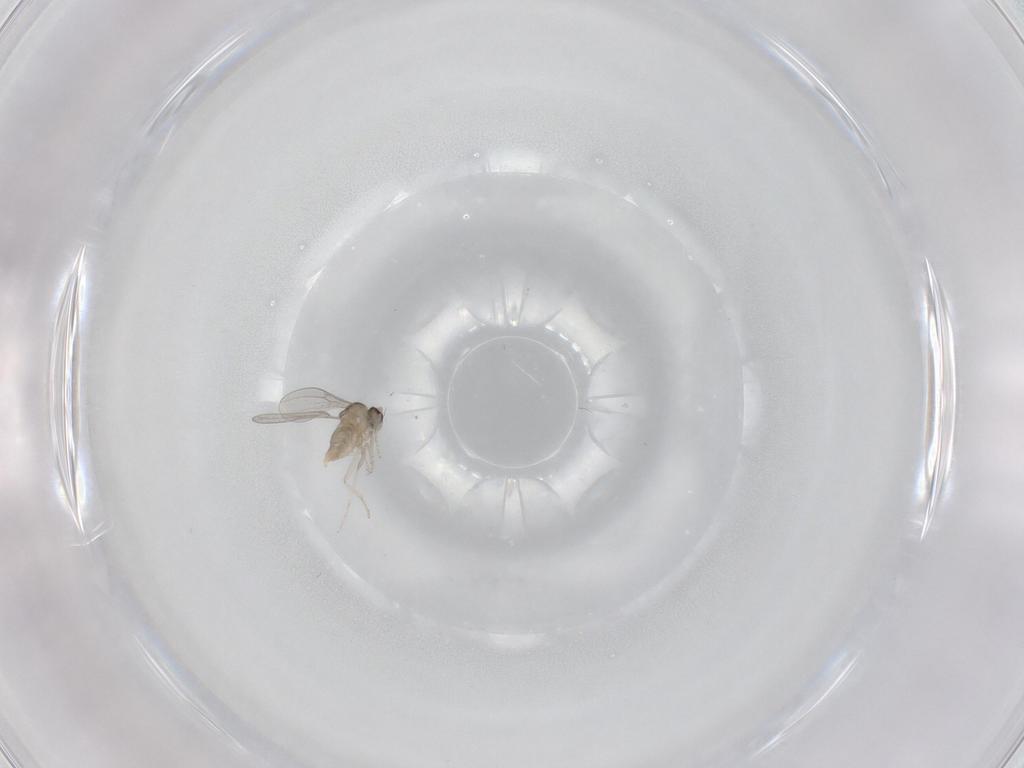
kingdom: Animalia
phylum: Arthropoda
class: Insecta
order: Diptera
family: Cecidomyiidae
